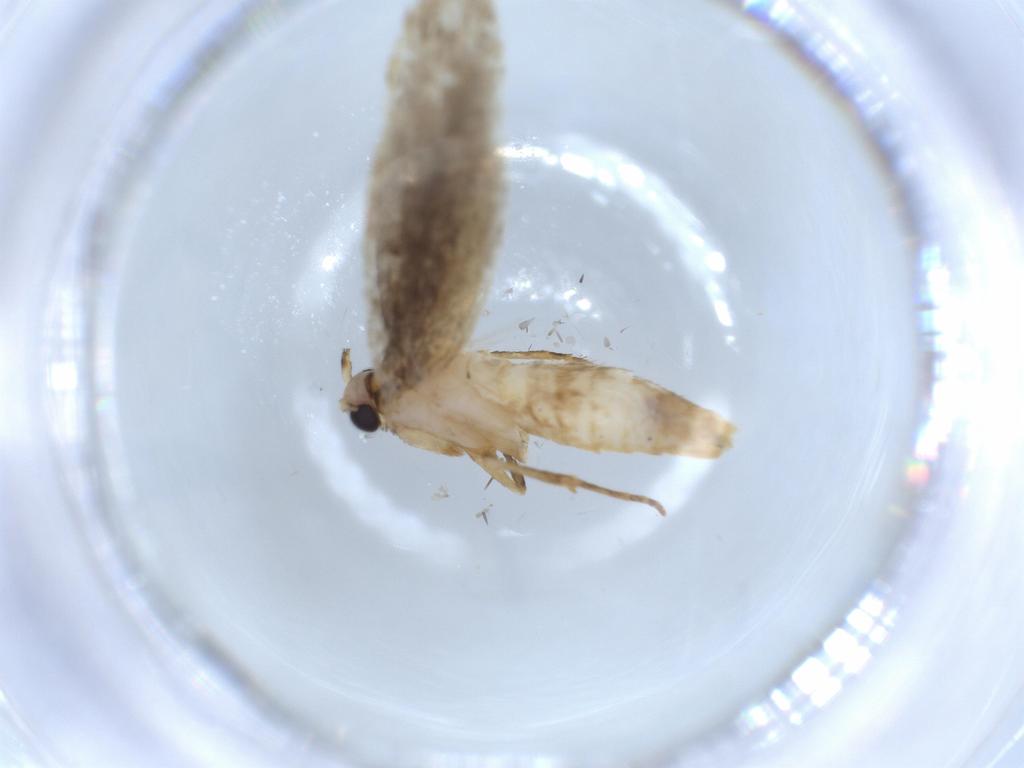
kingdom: Animalia
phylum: Arthropoda
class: Insecta
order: Lepidoptera
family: Tineidae
